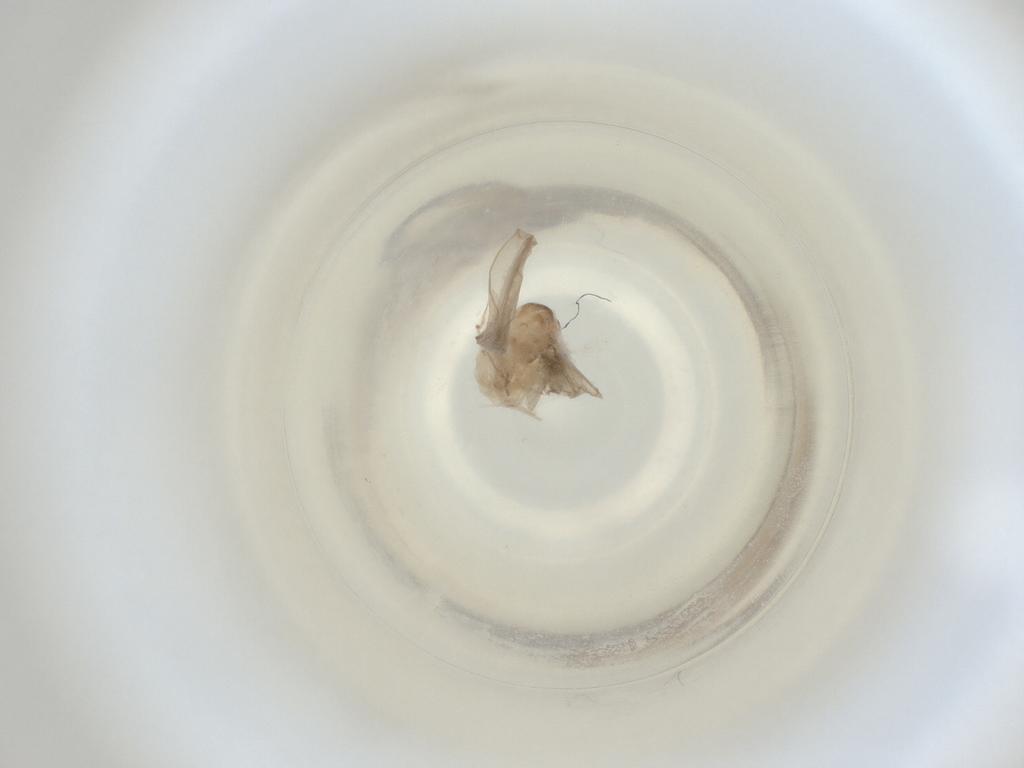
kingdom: Animalia
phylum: Arthropoda
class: Insecta
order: Diptera
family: Cecidomyiidae
